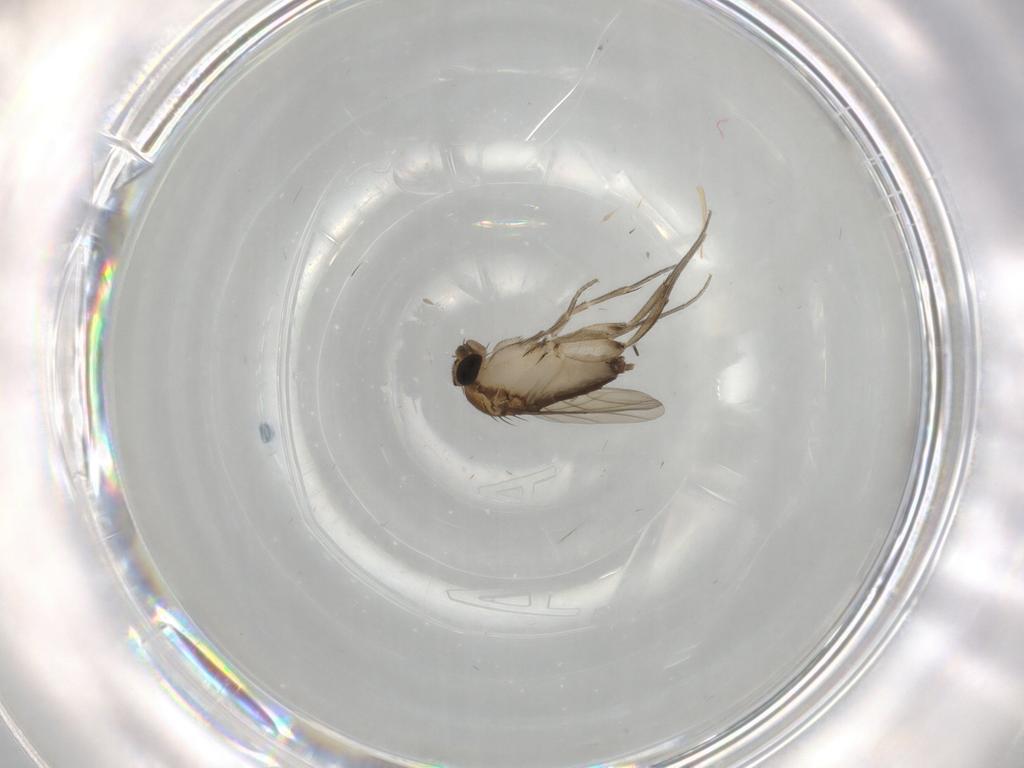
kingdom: Animalia
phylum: Arthropoda
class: Insecta
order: Diptera
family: Phoridae
